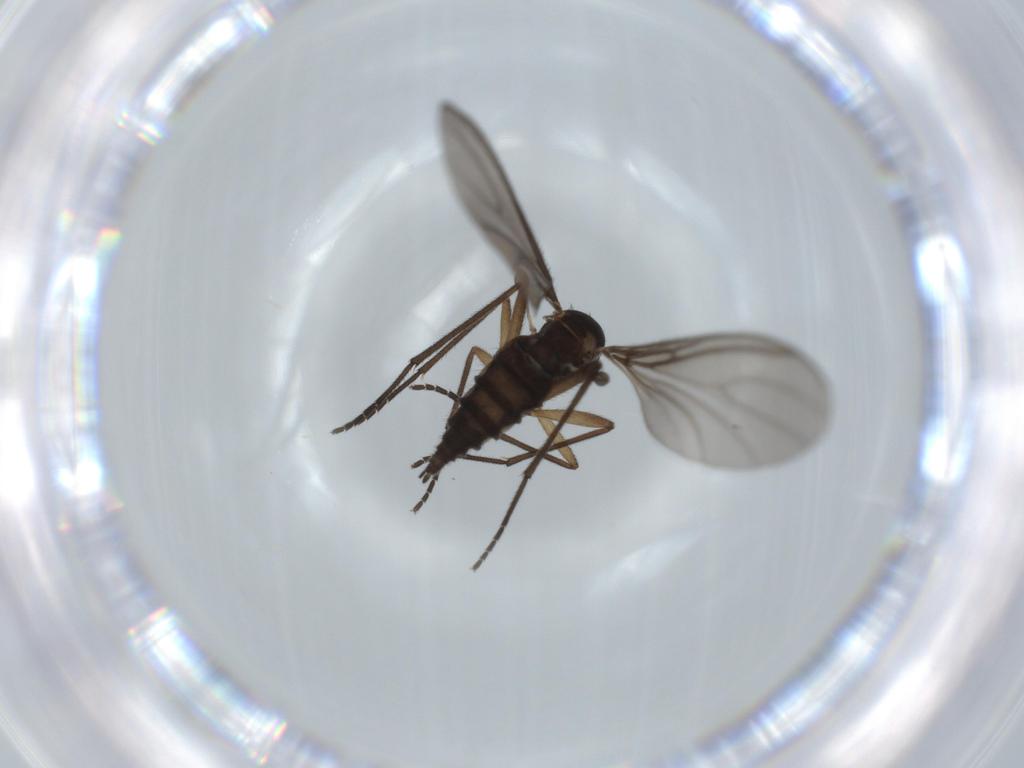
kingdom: Animalia
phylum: Arthropoda
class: Insecta
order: Diptera
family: Sciaridae
